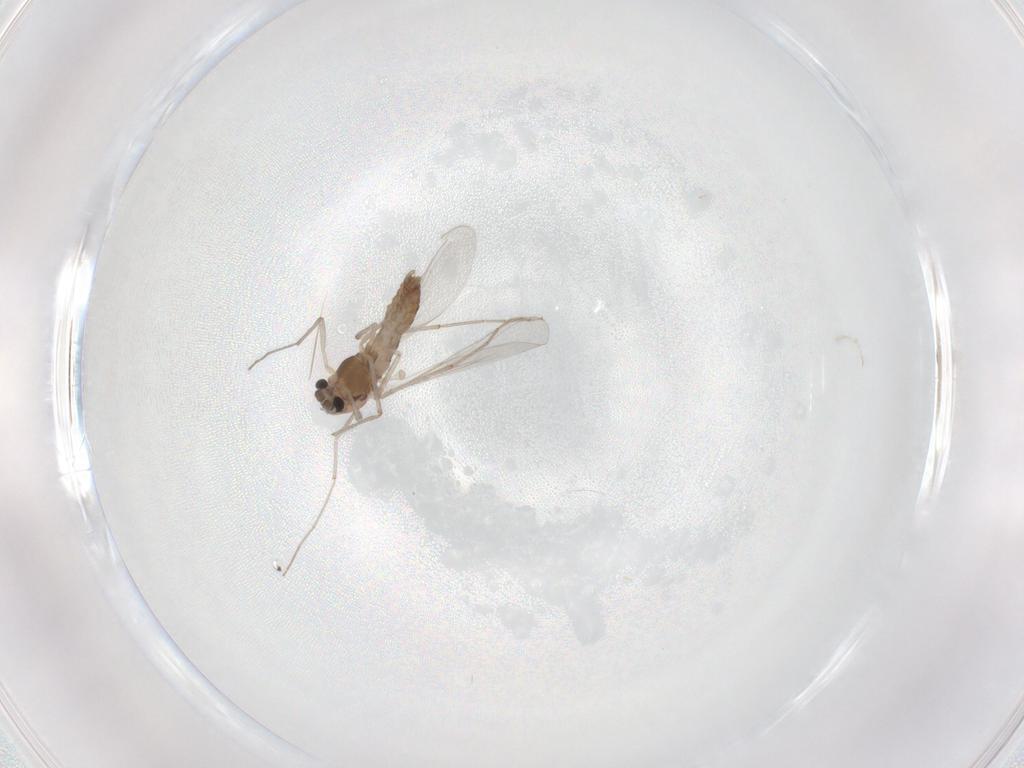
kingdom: Animalia
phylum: Arthropoda
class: Insecta
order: Diptera
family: Chironomidae
